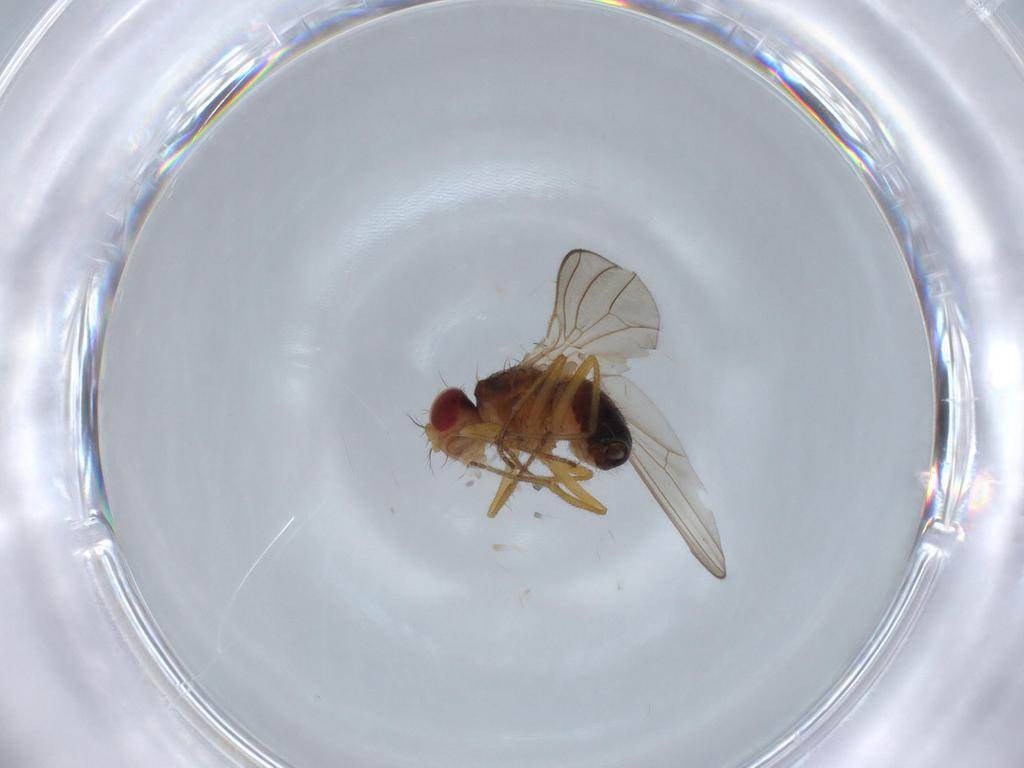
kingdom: Animalia
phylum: Arthropoda
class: Insecta
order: Diptera
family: Drosophilidae
